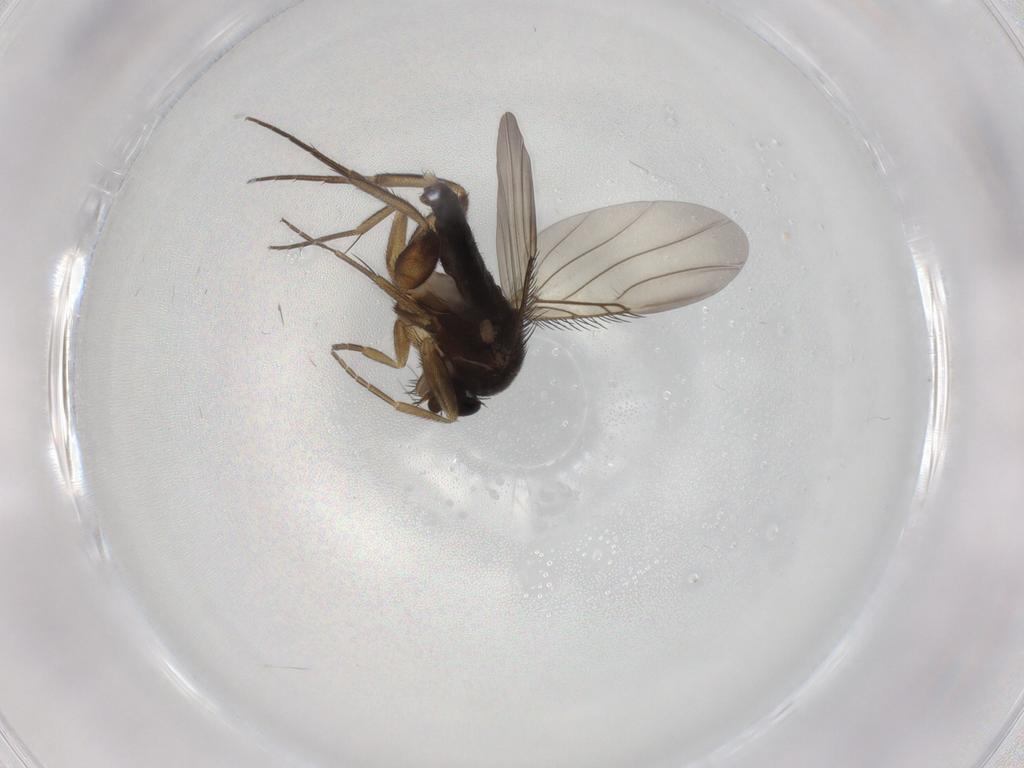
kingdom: Animalia
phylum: Arthropoda
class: Insecta
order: Diptera
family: Phoridae
